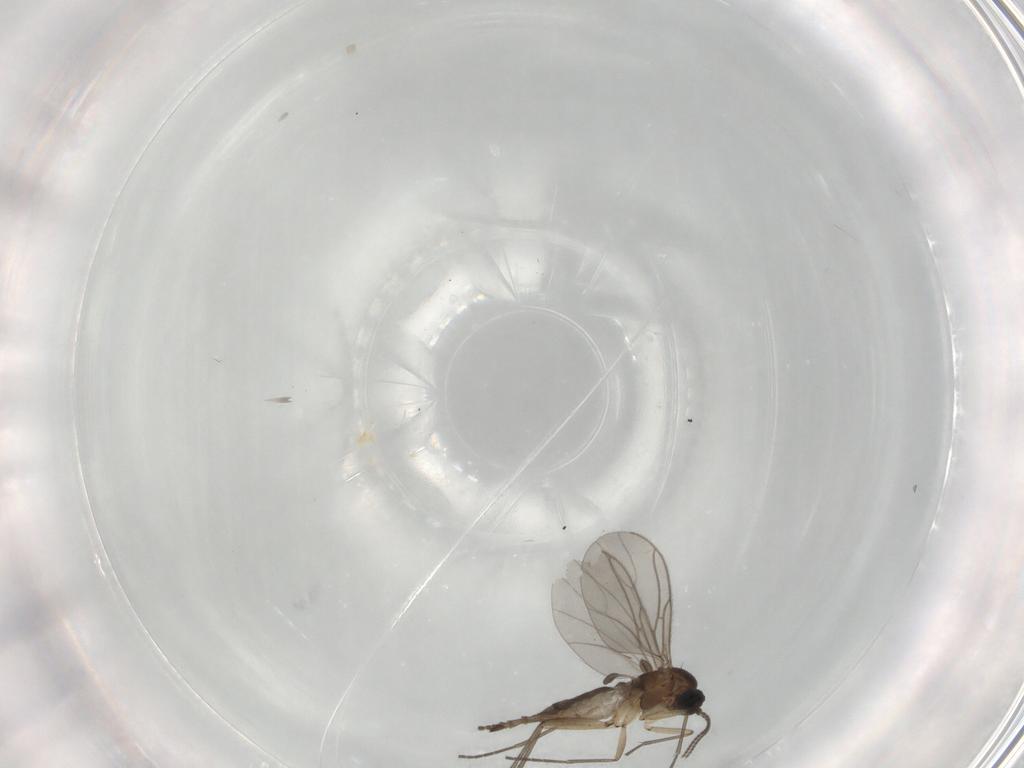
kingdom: Animalia
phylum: Arthropoda
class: Insecta
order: Diptera
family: Sciaridae
